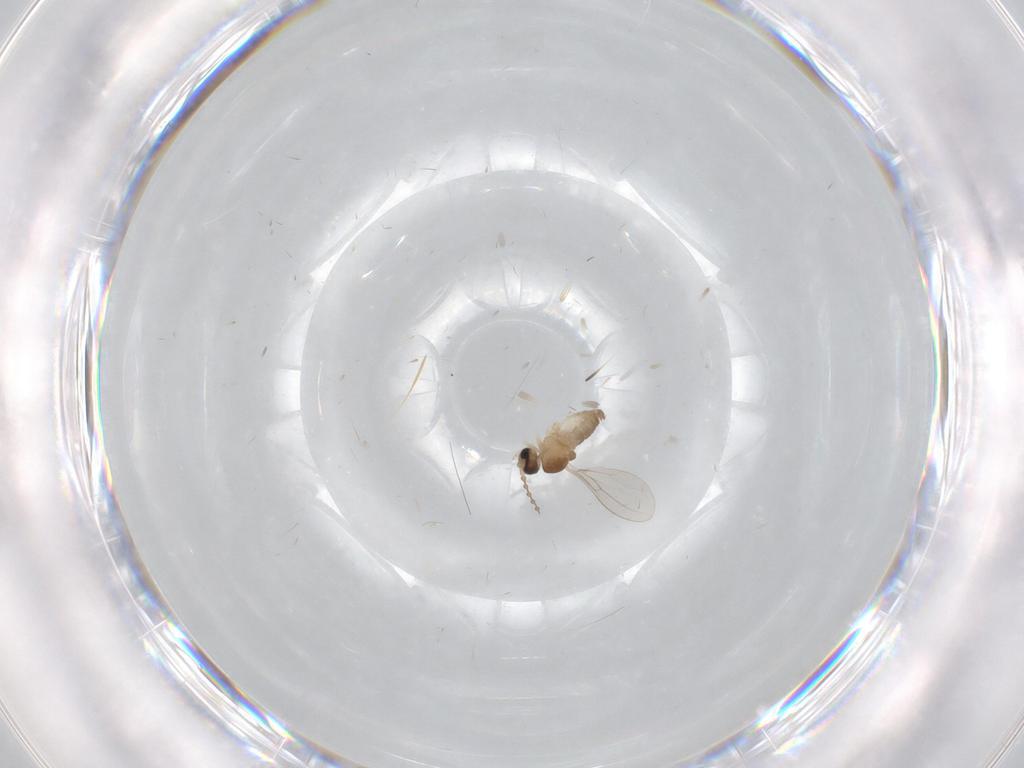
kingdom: Animalia
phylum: Arthropoda
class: Insecta
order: Diptera
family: Cecidomyiidae
